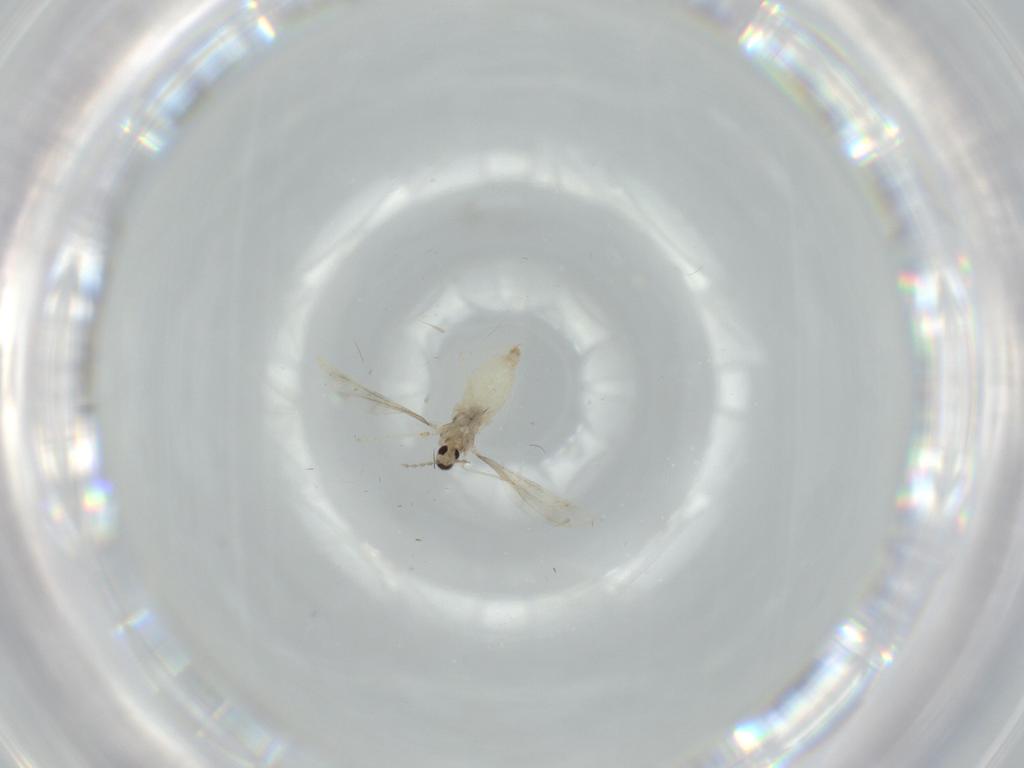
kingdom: Animalia
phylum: Arthropoda
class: Insecta
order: Diptera
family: Cecidomyiidae
